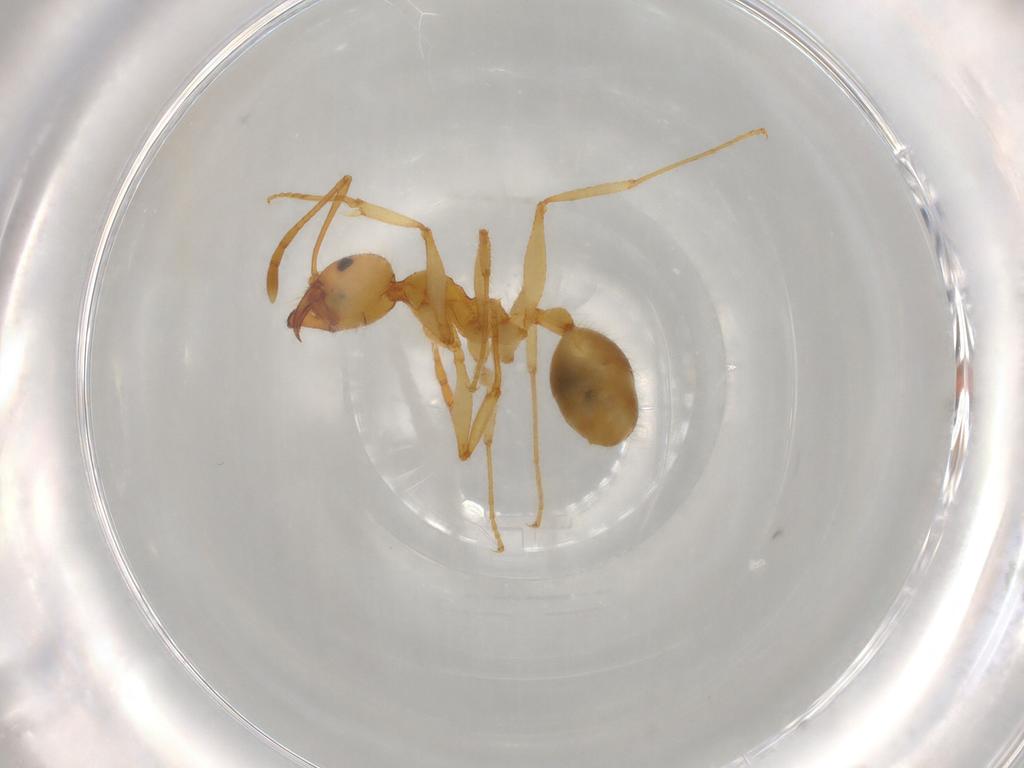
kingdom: Animalia
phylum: Arthropoda
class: Insecta
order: Hymenoptera
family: Formicidae
